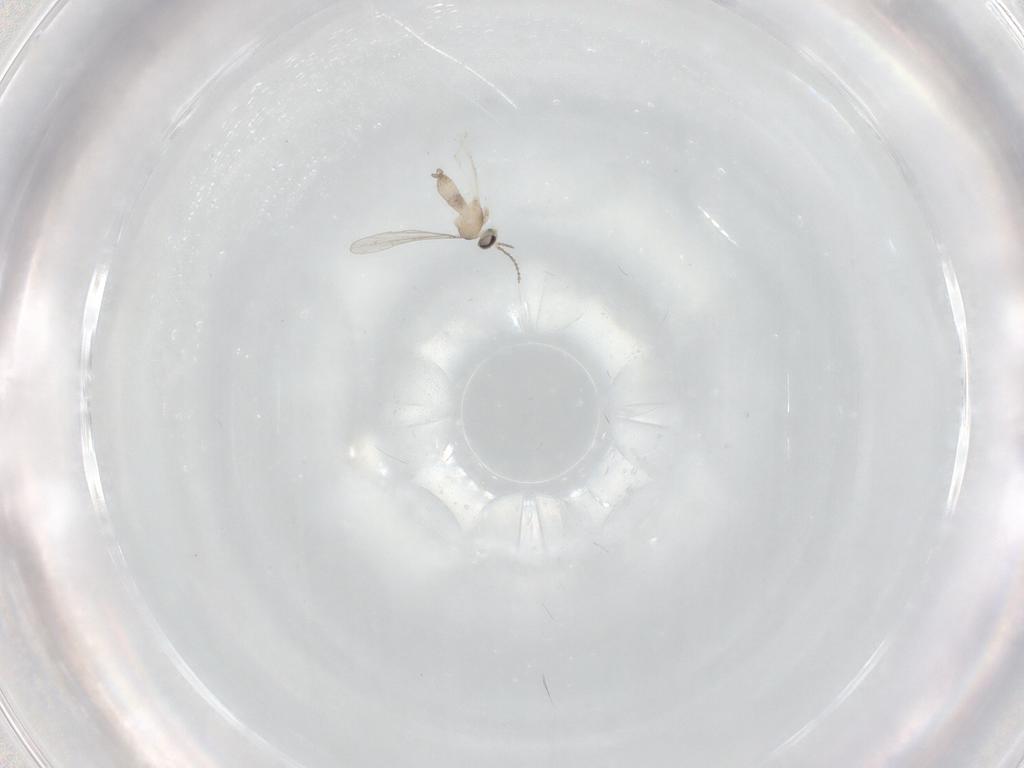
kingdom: Animalia
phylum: Arthropoda
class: Insecta
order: Diptera
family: Cecidomyiidae
